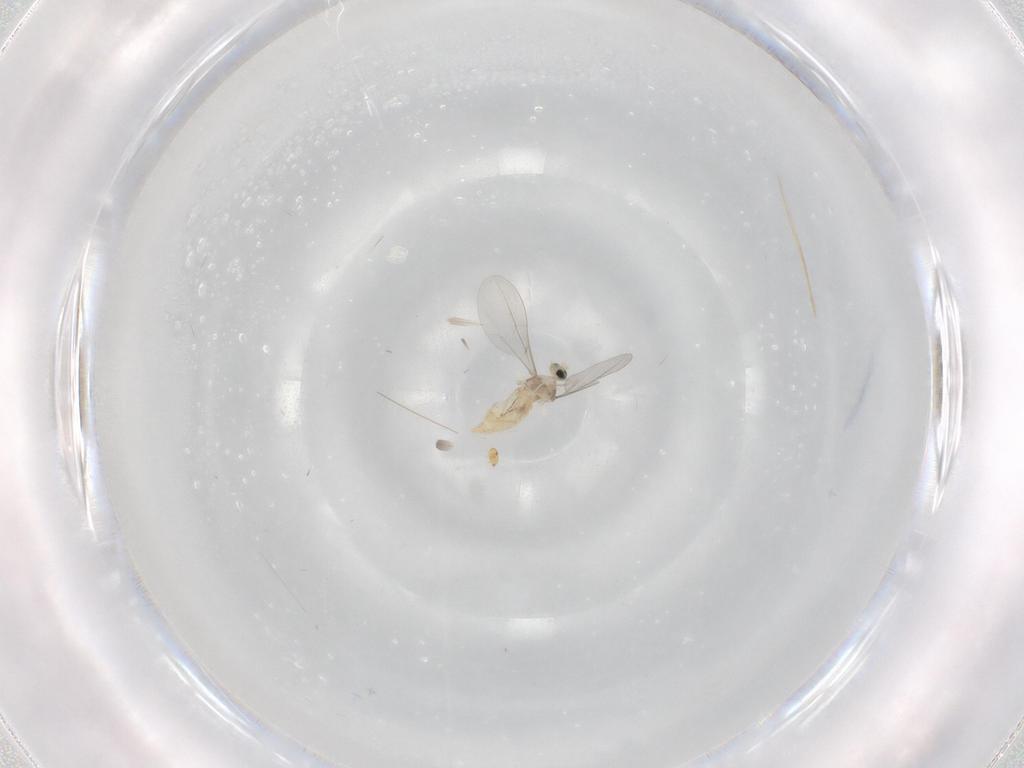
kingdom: Animalia
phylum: Arthropoda
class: Insecta
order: Diptera
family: Cecidomyiidae
